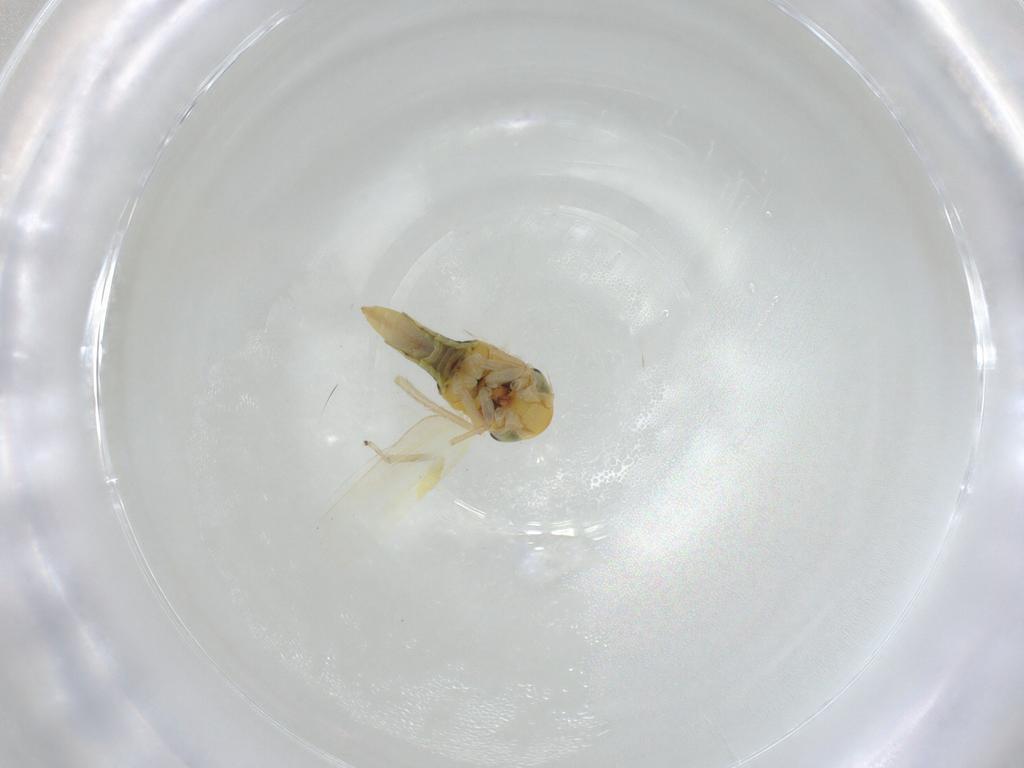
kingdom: Animalia
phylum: Arthropoda
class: Insecta
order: Hemiptera
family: Cicadellidae
